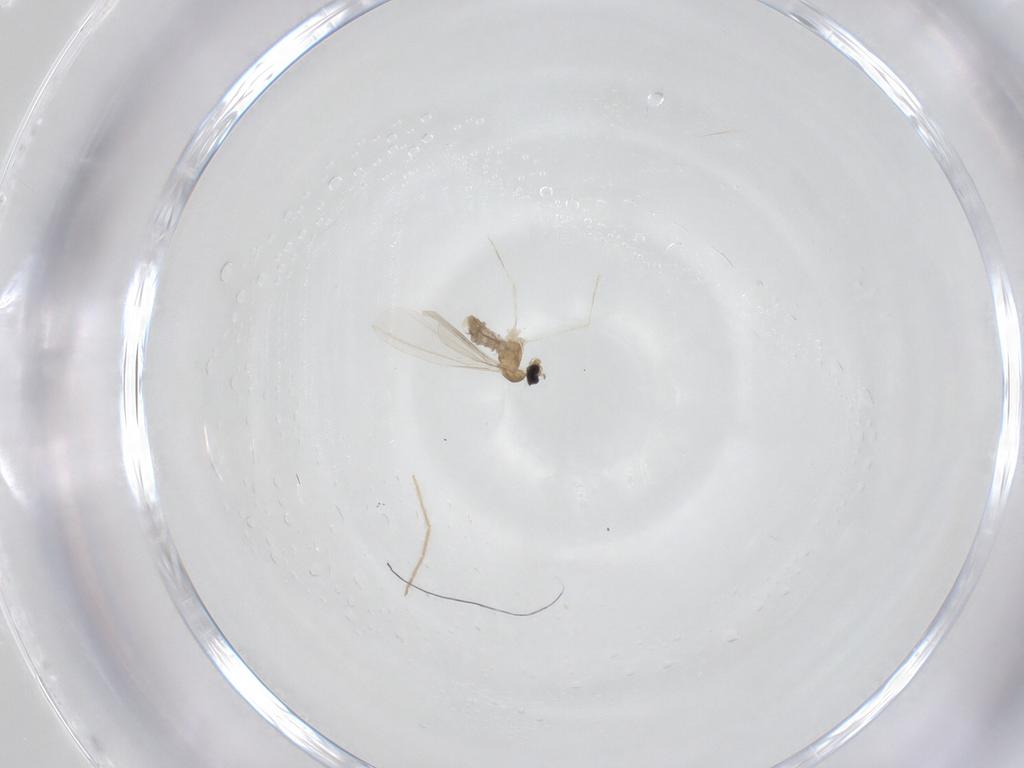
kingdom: Animalia
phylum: Arthropoda
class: Insecta
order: Diptera
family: Cecidomyiidae
